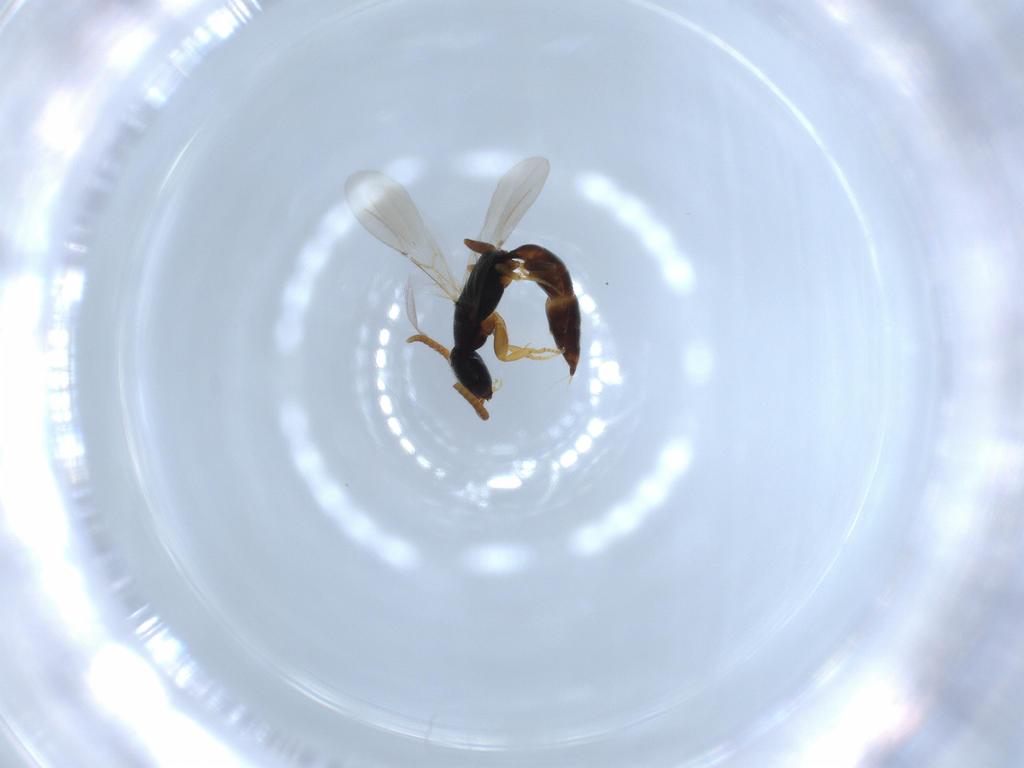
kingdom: Animalia
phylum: Arthropoda
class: Insecta
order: Hymenoptera
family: Bethylidae
